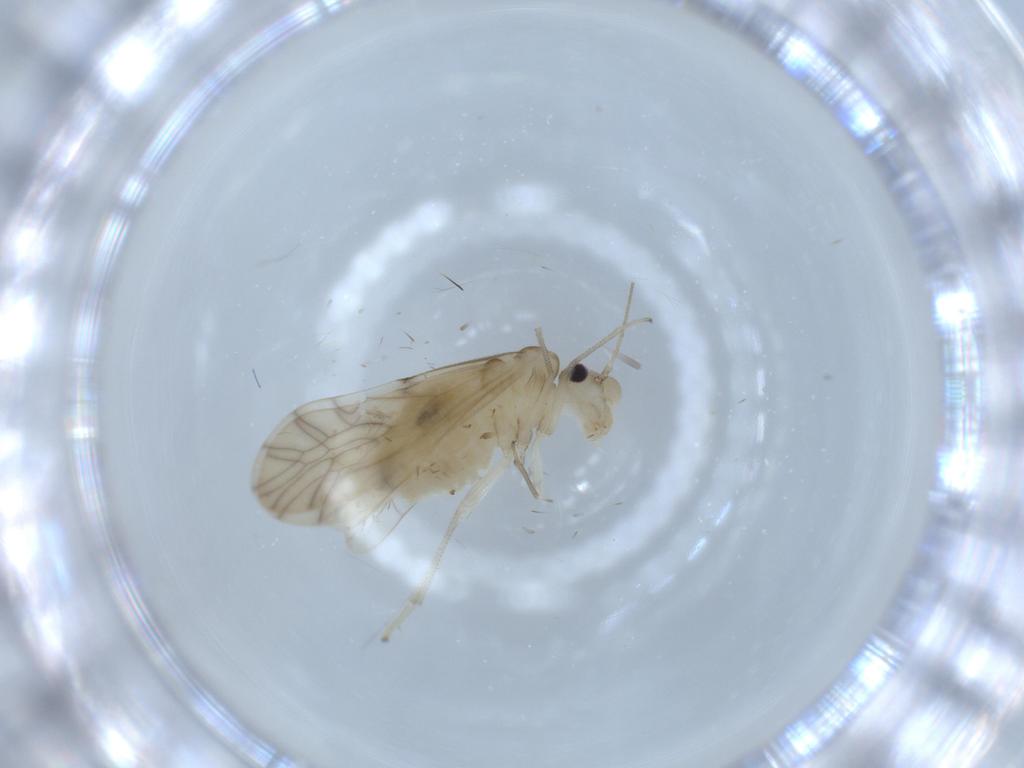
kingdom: Animalia
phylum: Arthropoda
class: Insecta
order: Psocodea
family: Caeciliusidae
